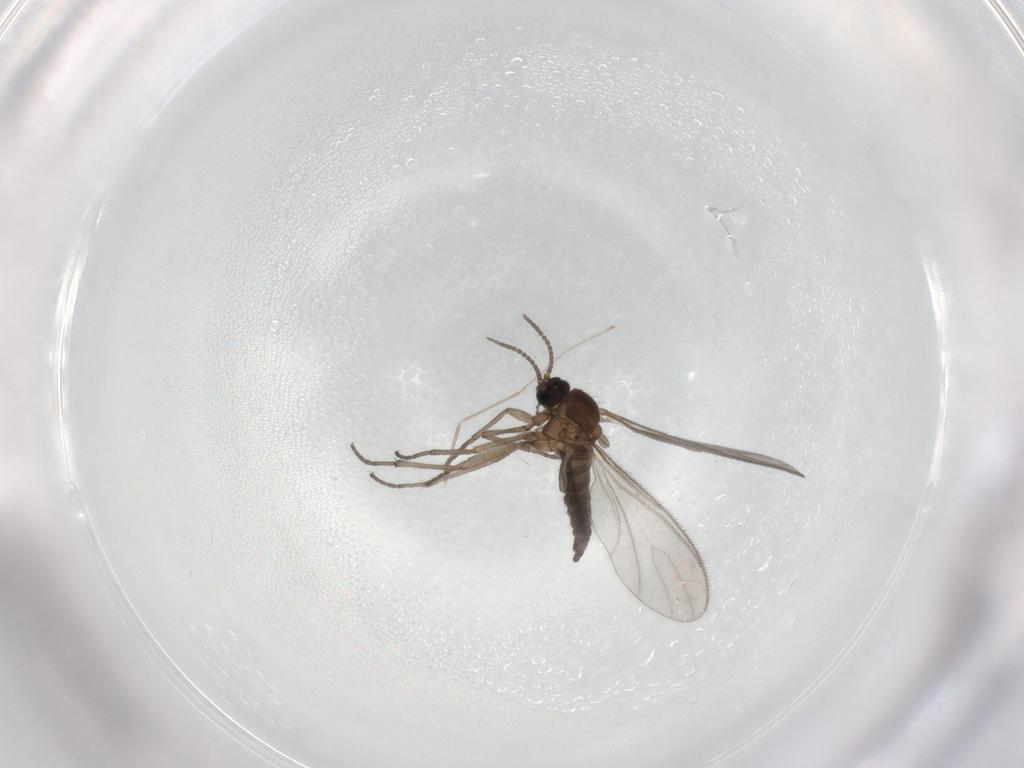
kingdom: Animalia
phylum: Arthropoda
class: Insecta
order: Diptera
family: Sciaridae
